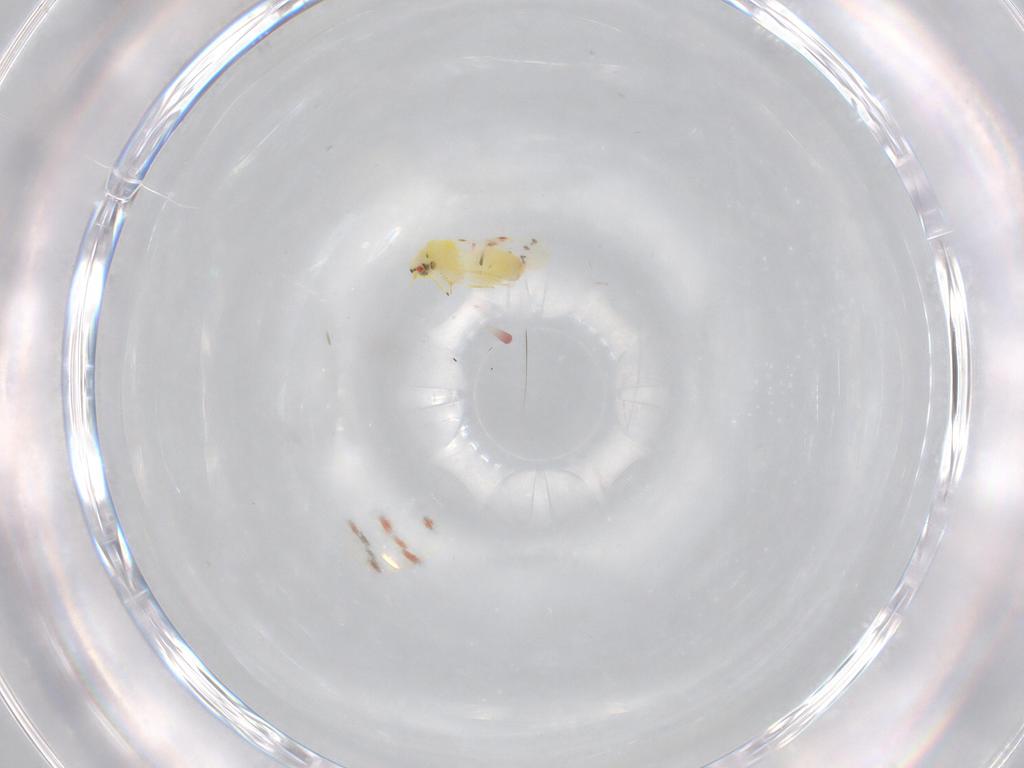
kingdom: Animalia
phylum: Arthropoda
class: Insecta
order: Hemiptera
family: Aleyrodidae
